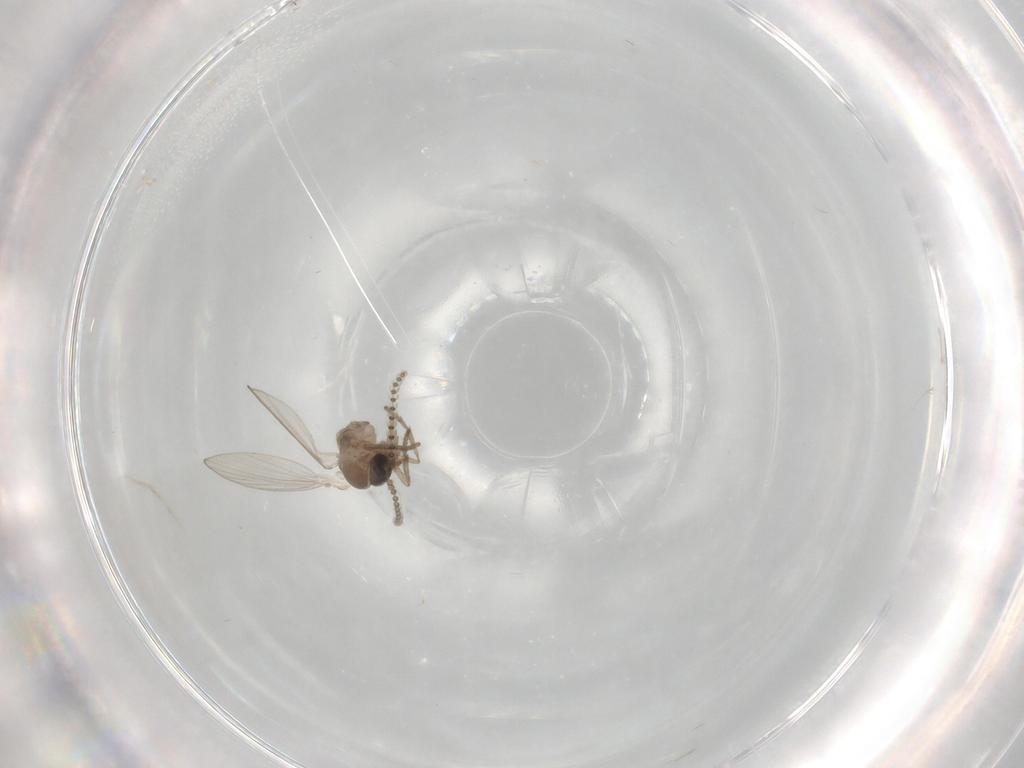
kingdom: Animalia
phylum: Arthropoda
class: Insecta
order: Diptera
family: Psychodidae
